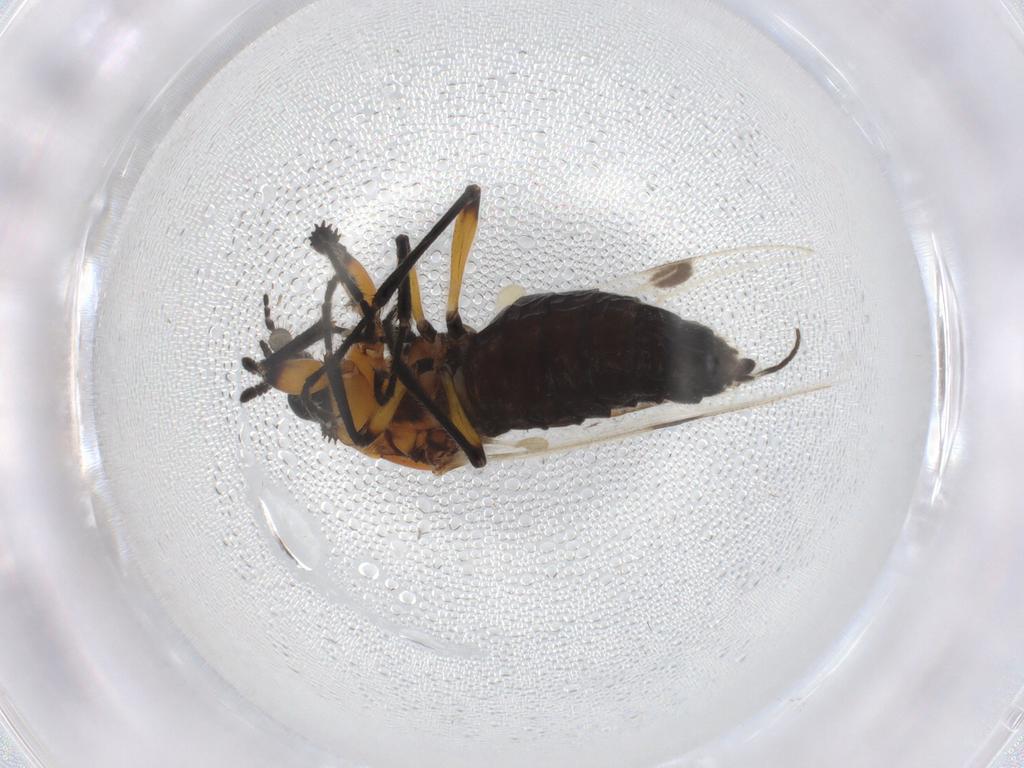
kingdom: Animalia
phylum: Arthropoda
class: Insecta
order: Diptera
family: Bibionidae
